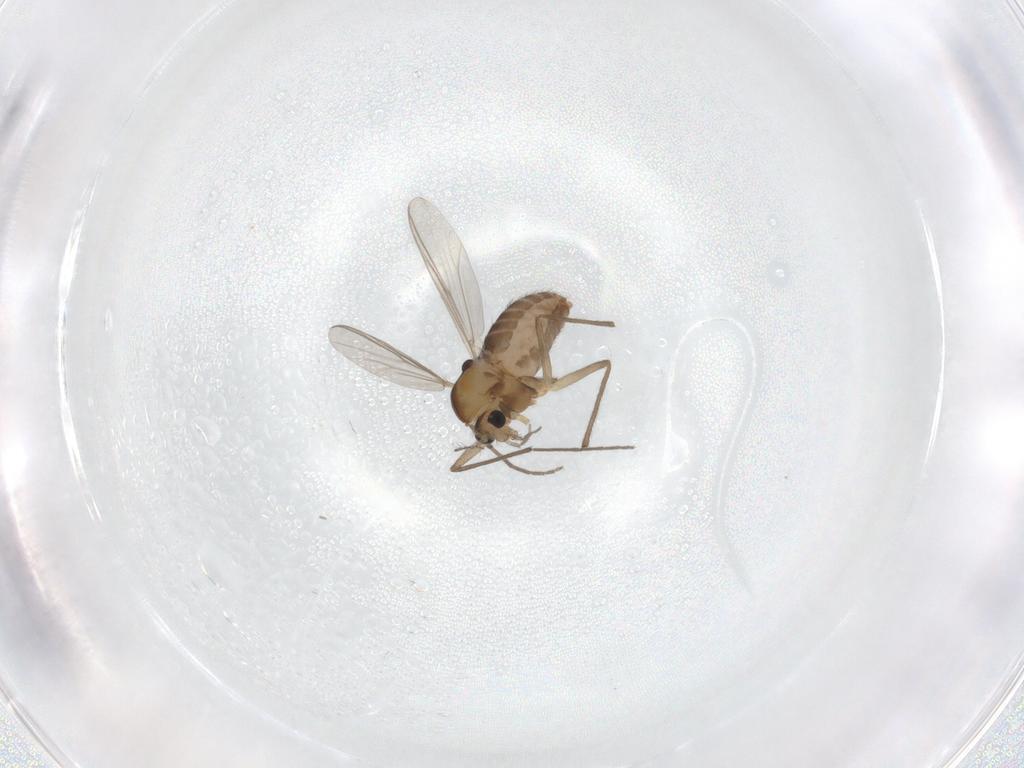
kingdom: Animalia
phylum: Arthropoda
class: Insecta
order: Diptera
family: Chironomidae
